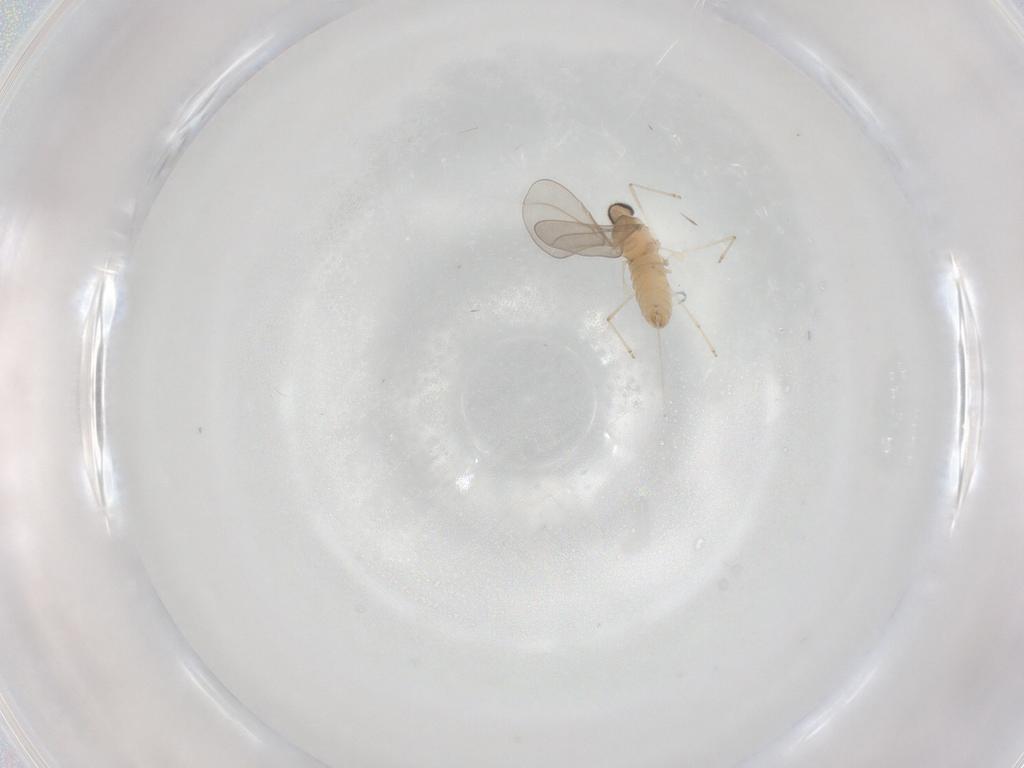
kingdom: Animalia
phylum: Arthropoda
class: Insecta
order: Diptera
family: Cecidomyiidae
